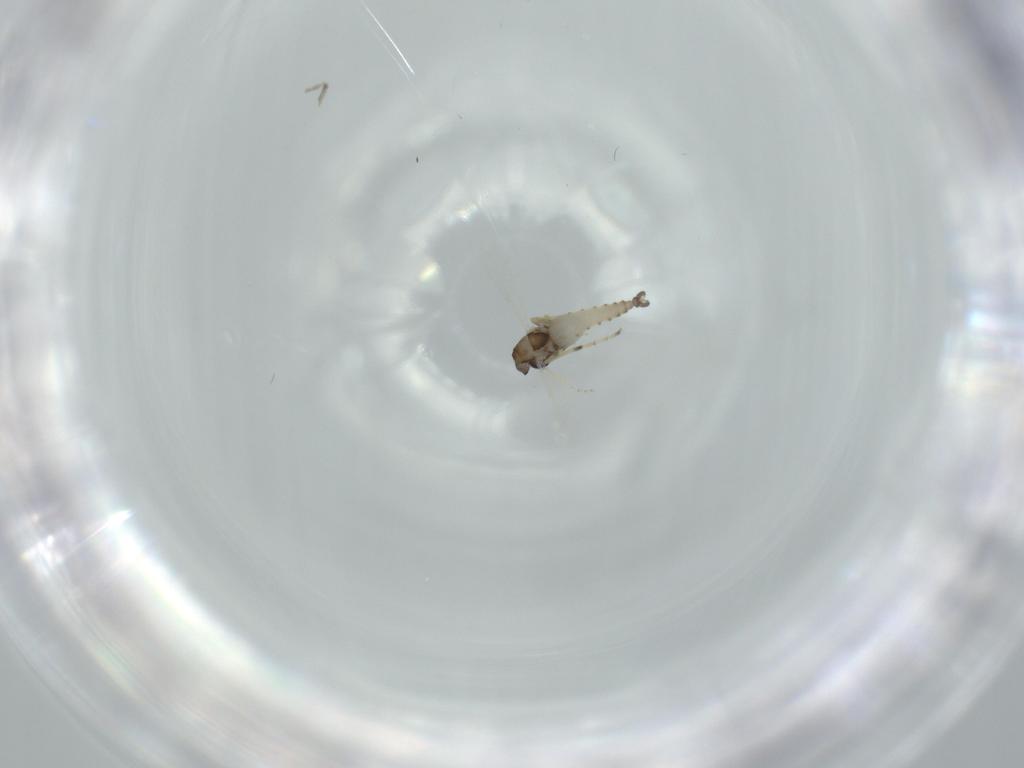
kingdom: Animalia
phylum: Arthropoda
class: Insecta
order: Diptera
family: Ceratopogonidae
